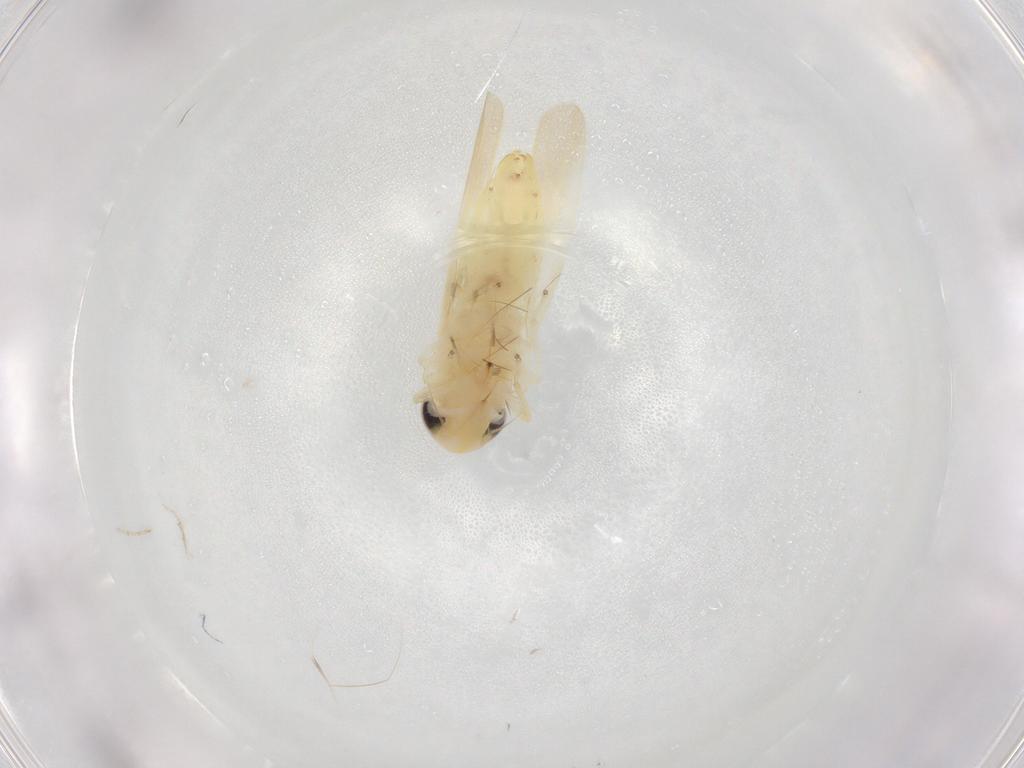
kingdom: Animalia
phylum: Arthropoda
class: Insecta
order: Hemiptera
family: Cicadellidae
